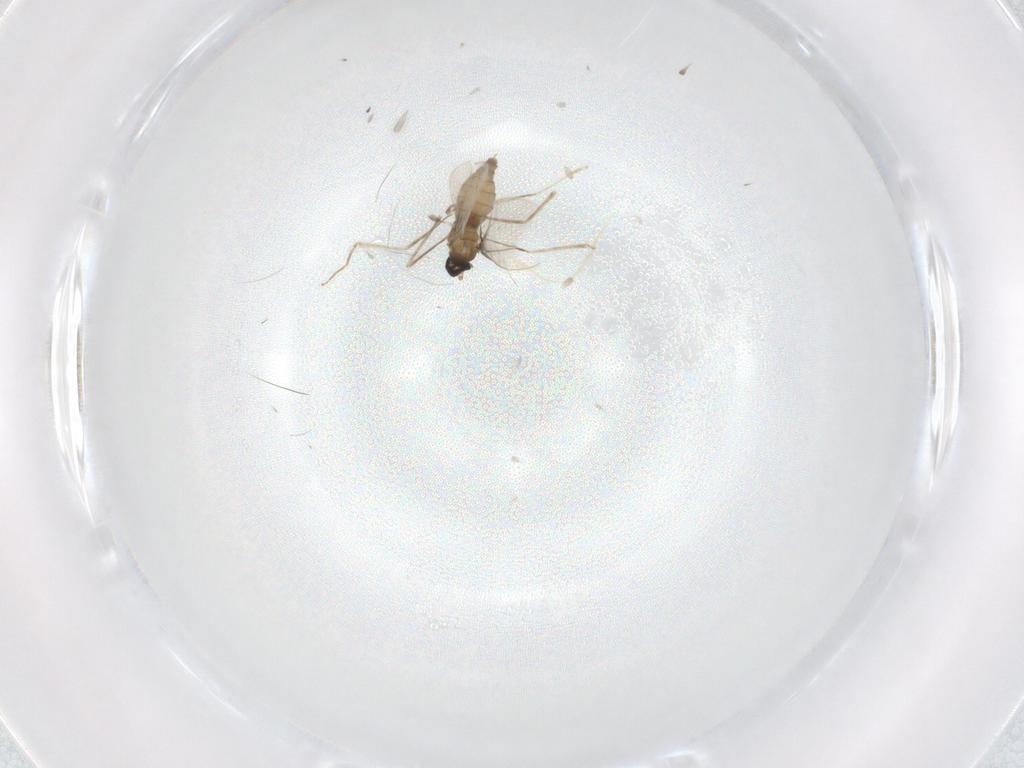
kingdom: Animalia
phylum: Arthropoda
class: Insecta
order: Diptera
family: Cecidomyiidae
